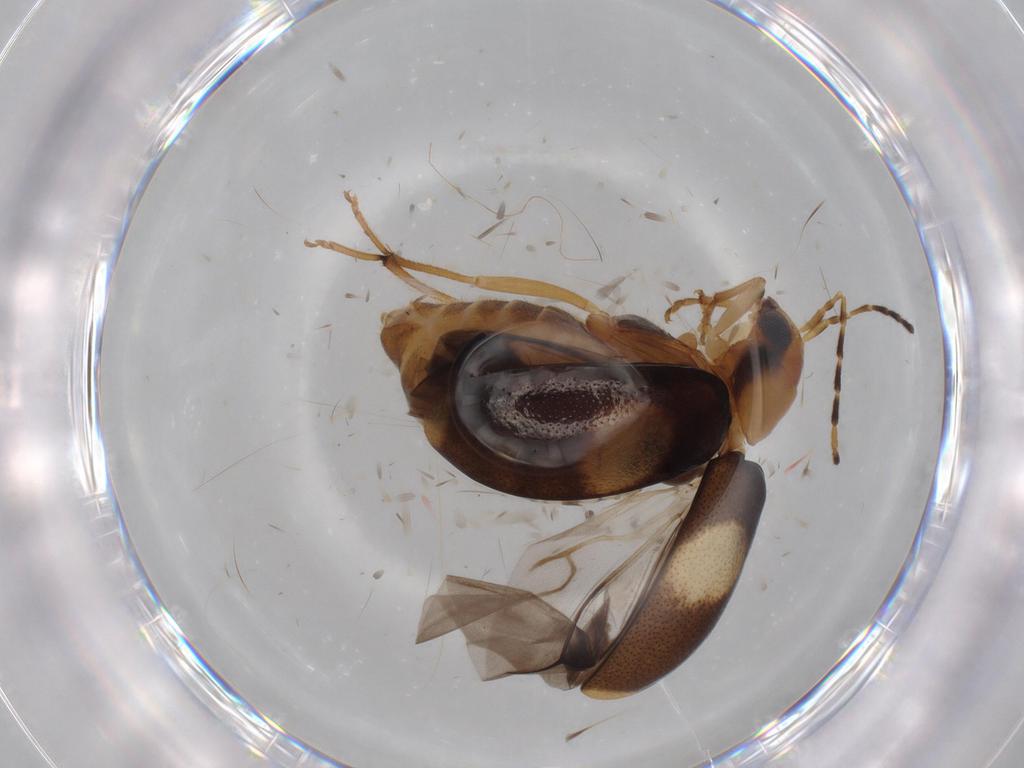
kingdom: Animalia
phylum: Arthropoda
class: Insecta
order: Coleoptera
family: Chrysomelidae
